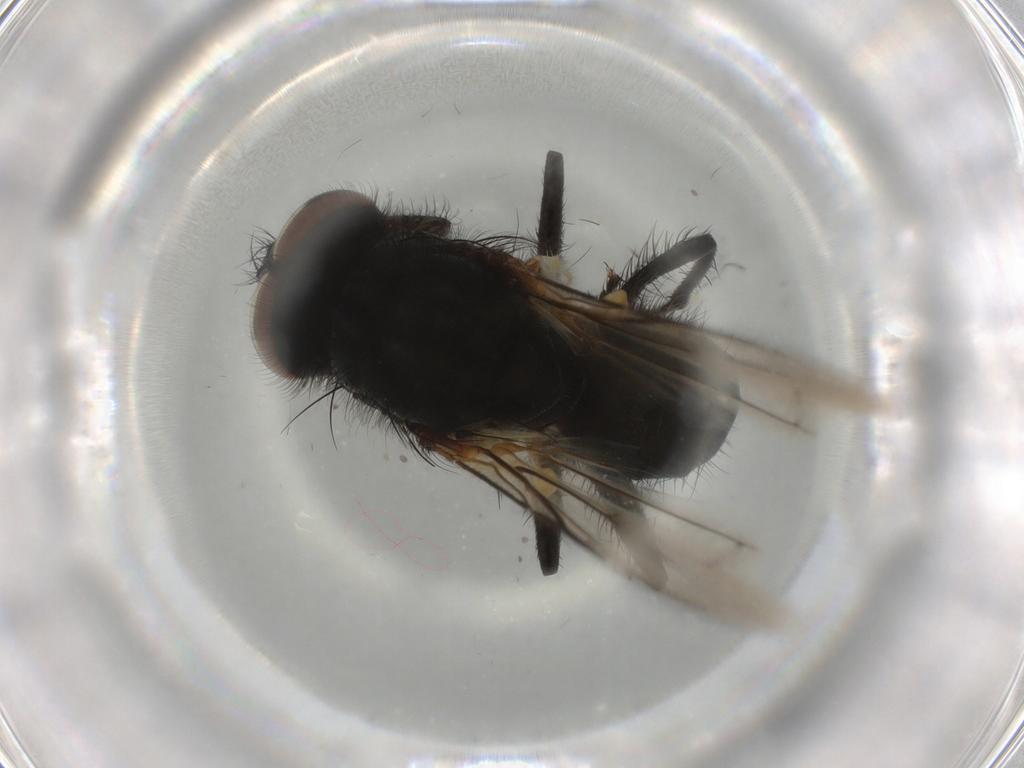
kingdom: Animalia
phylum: Arthropoda
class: Insecta
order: Diptera
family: Anthomyiidae
